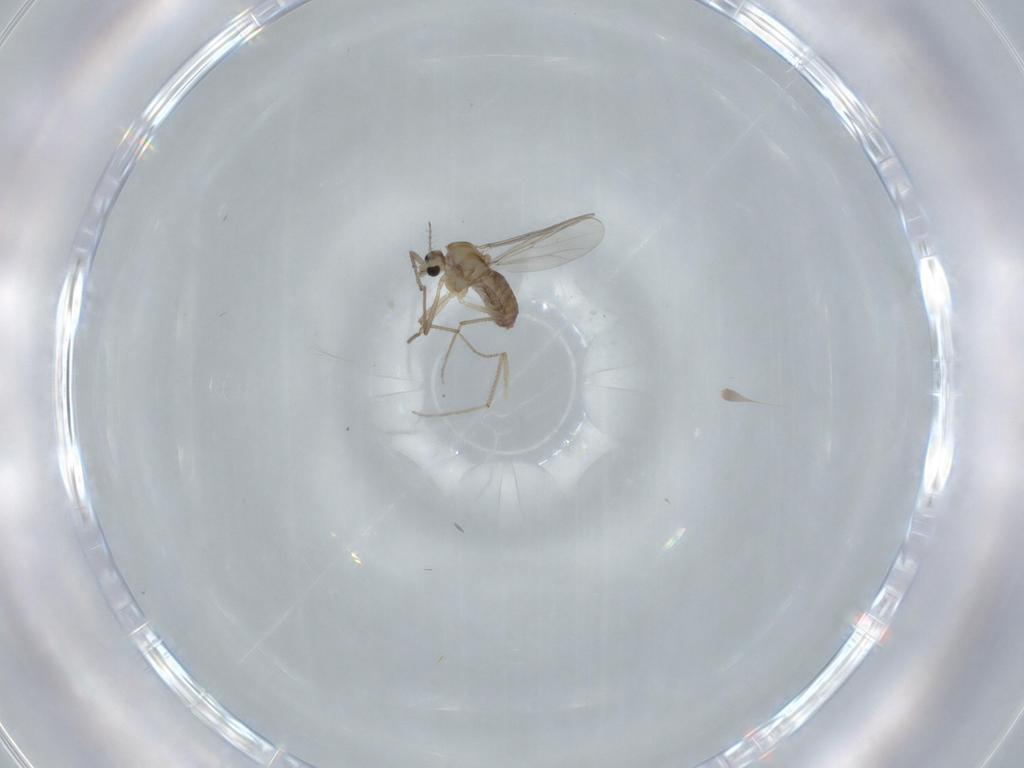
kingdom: Animalia
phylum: Arthropoda
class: Insecta
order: Diptera
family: Chironomidae
